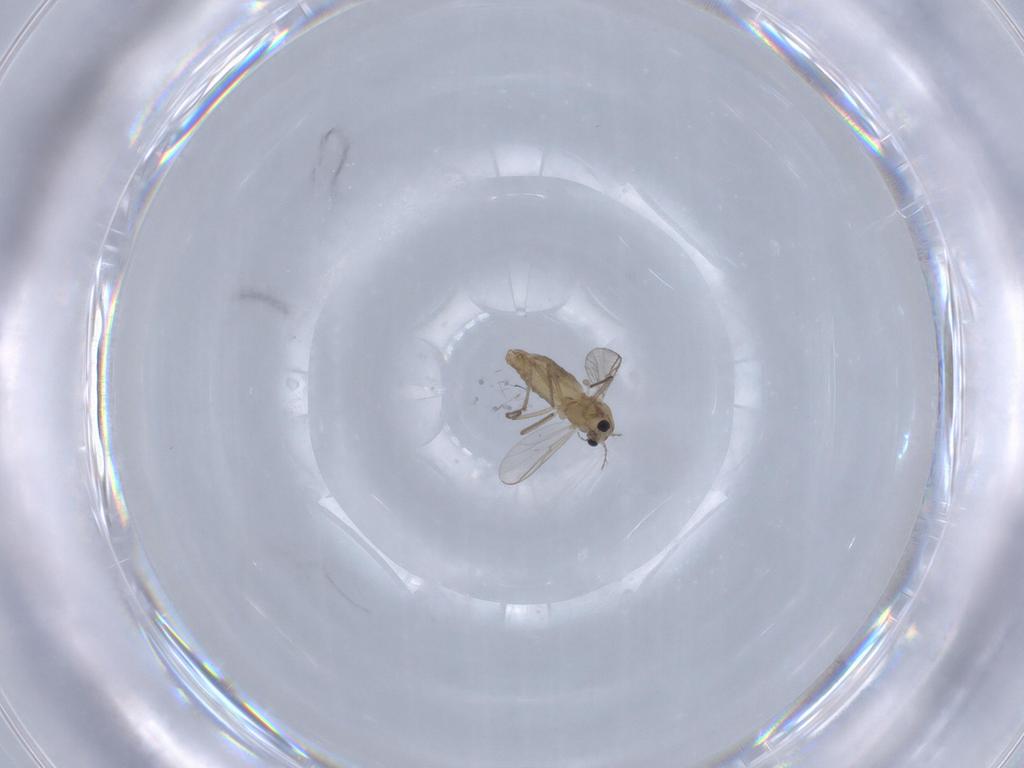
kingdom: Animalia
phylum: Arthropoda
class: Insecta
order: Diptera
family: Chironomidae
